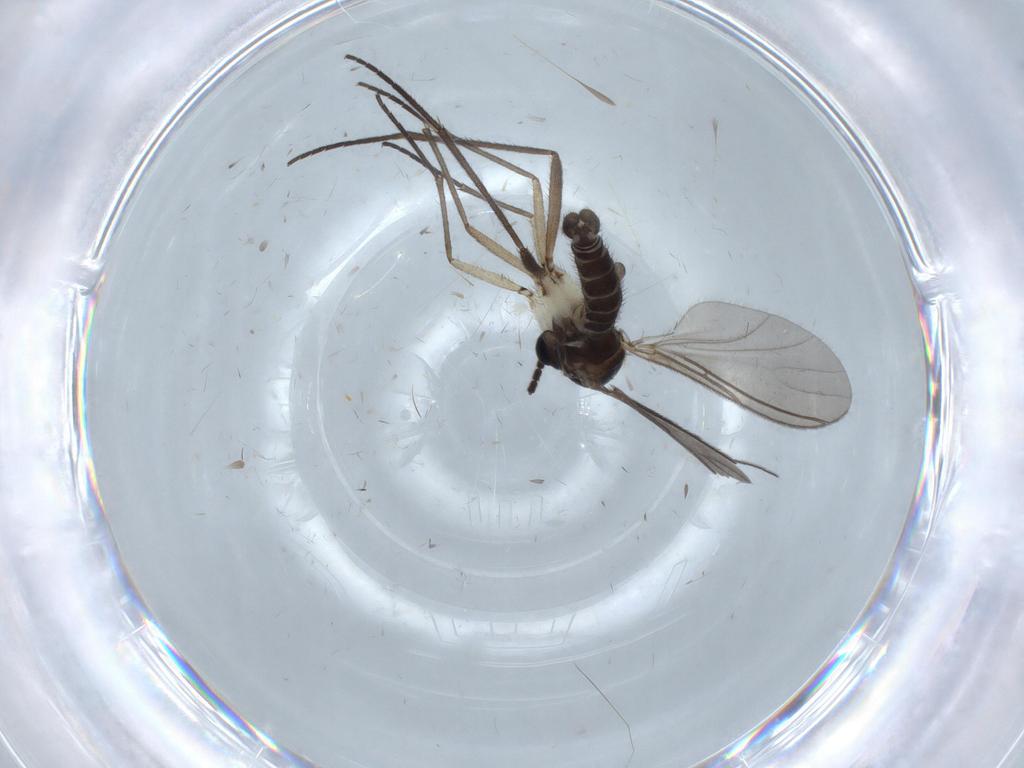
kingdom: Animalia
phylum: Arthropoda
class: Insecta
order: Diptera
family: Sciaridae
